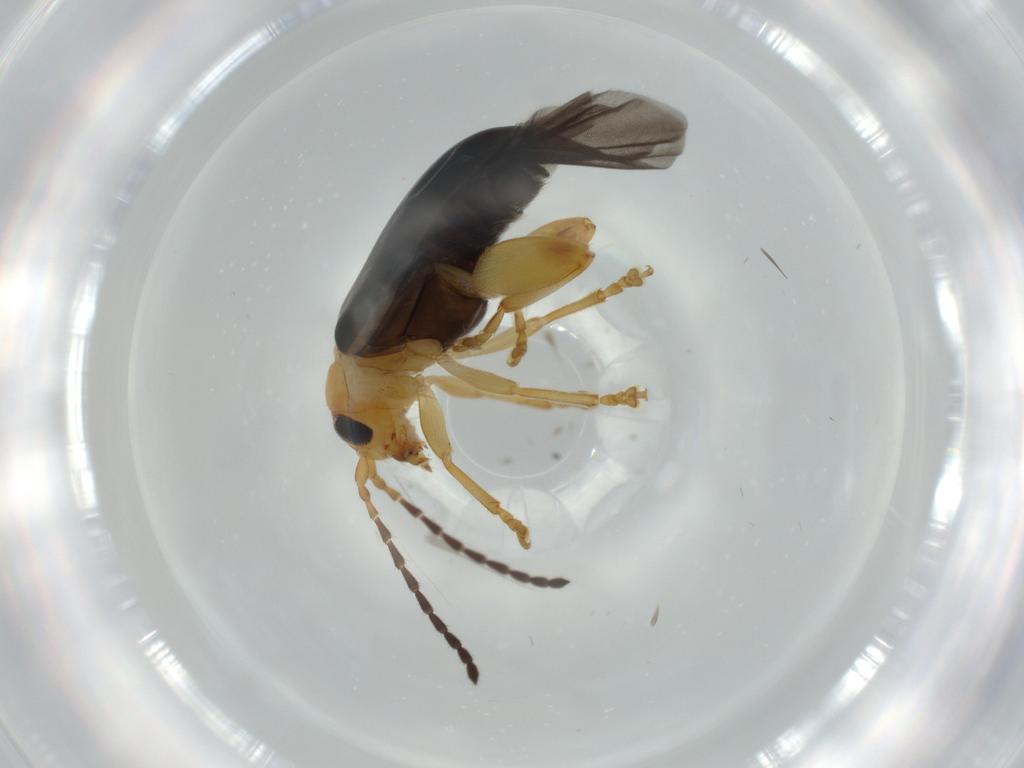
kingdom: Animalia
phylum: Arthropoda
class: Insecta
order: Coleoptera
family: Chrysomelidae
